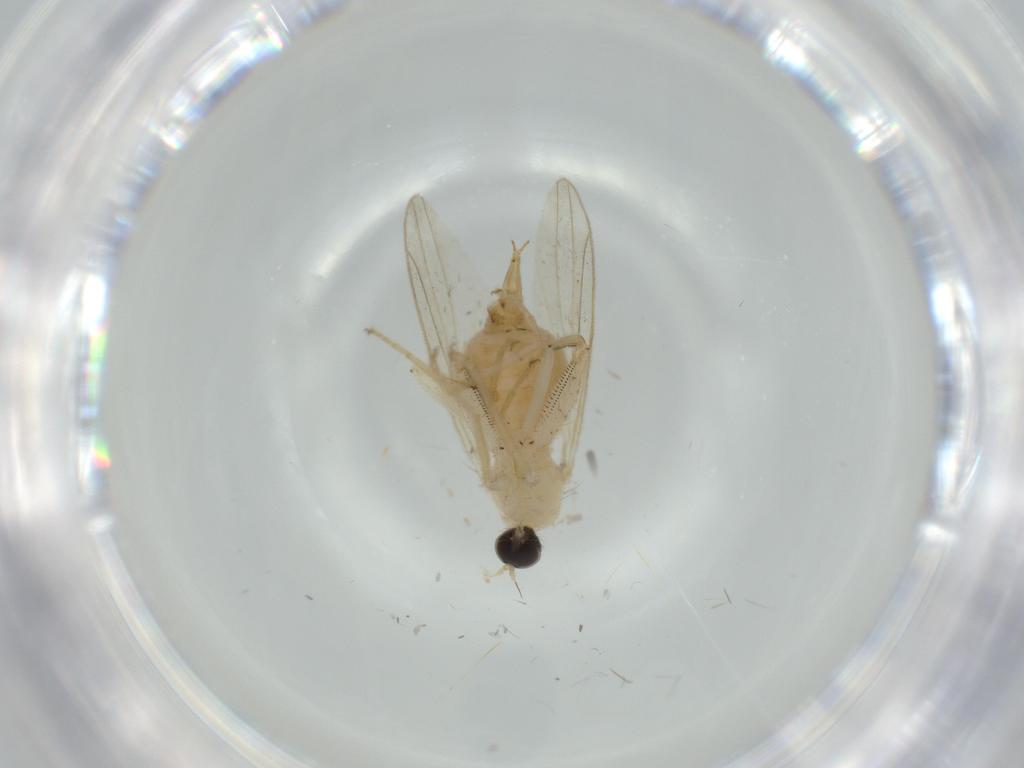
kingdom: Animalia
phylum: Arthropoda
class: Insecta
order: Diptera
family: Hybotidae
